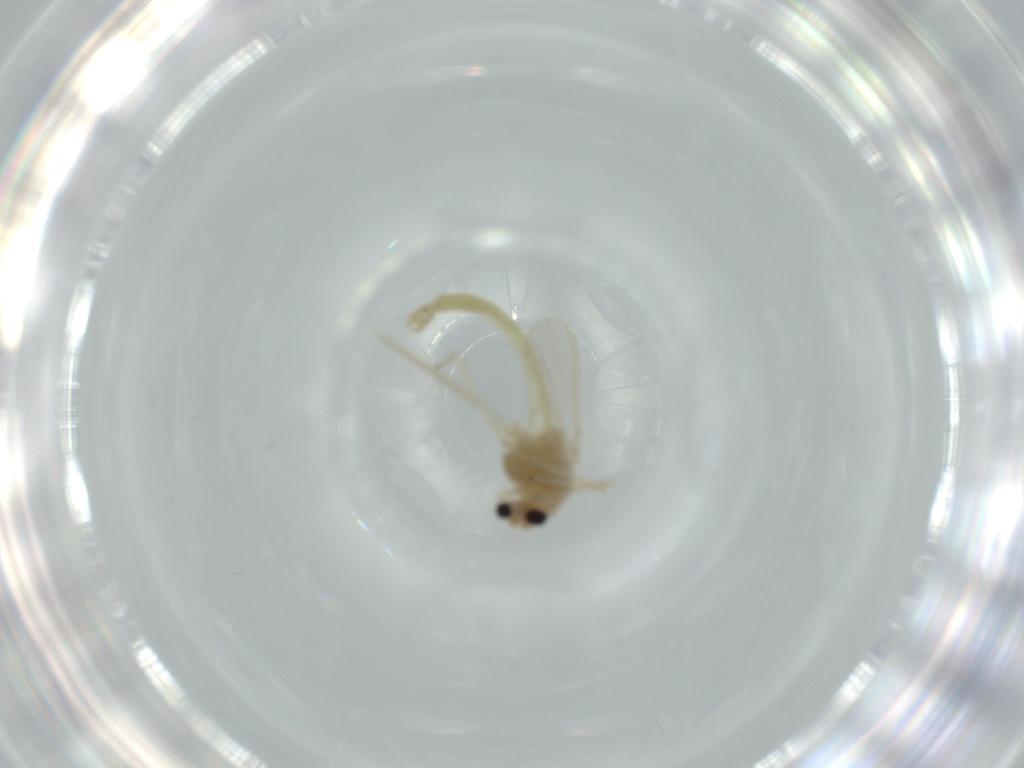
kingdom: Animalia
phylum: Arthropoda
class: Insecta
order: Diptera
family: Chironomidae
